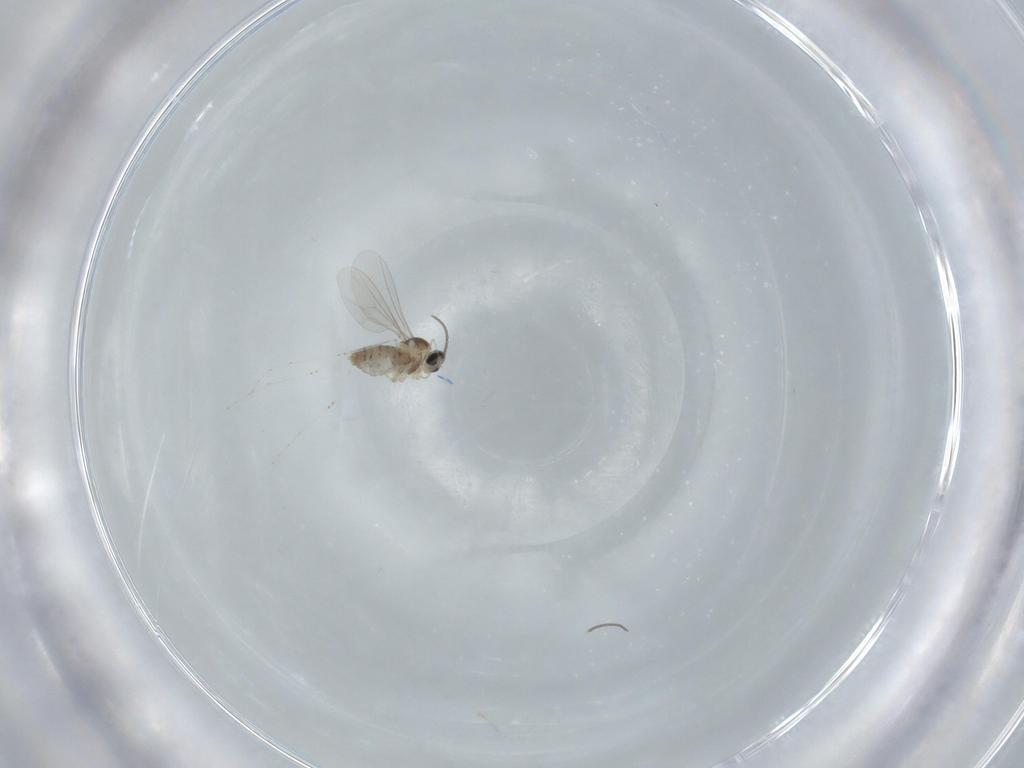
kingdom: Animalia
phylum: Arthropoda
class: Insecta
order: Diptera
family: Cecidomyiidae
